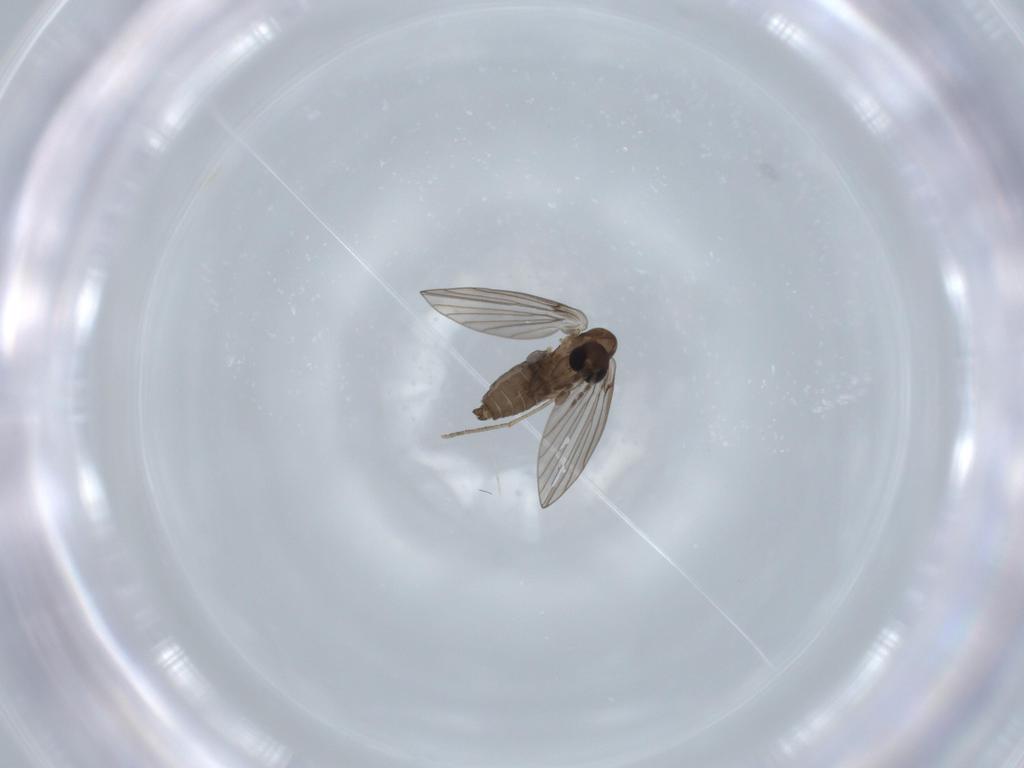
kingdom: Animalia
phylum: Arthropoda
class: Insecta
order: Diptera
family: Psychodidae
